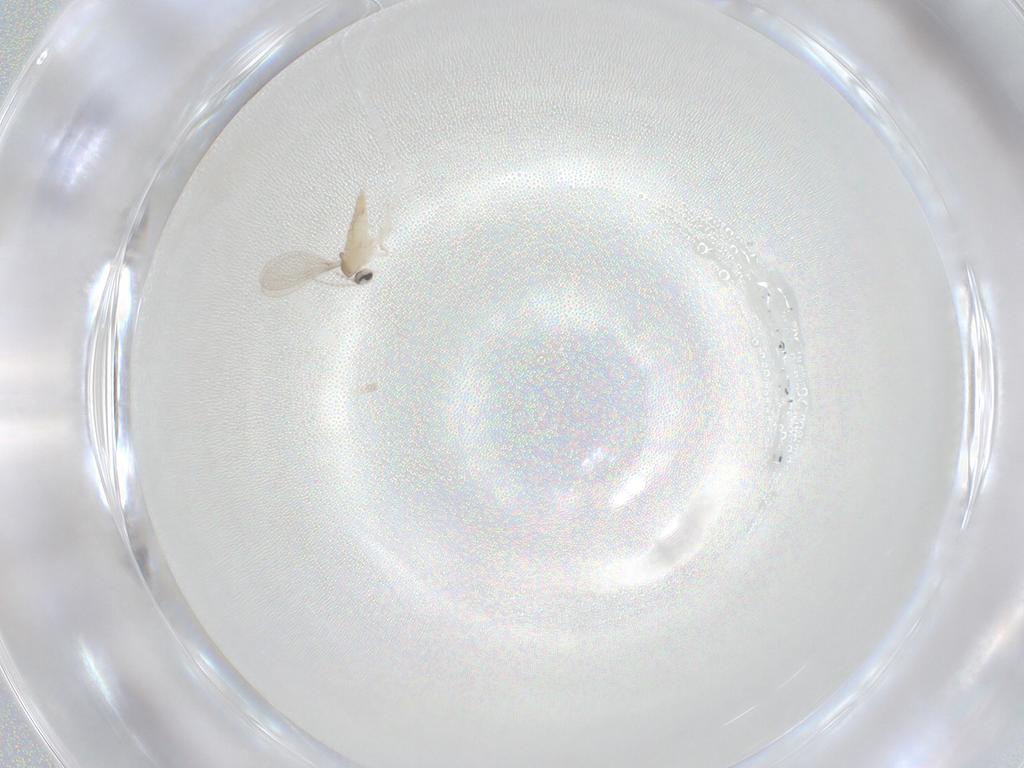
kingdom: Animalia
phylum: Arthropoda
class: Insecta
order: Diptera
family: Cecidomyiidae
